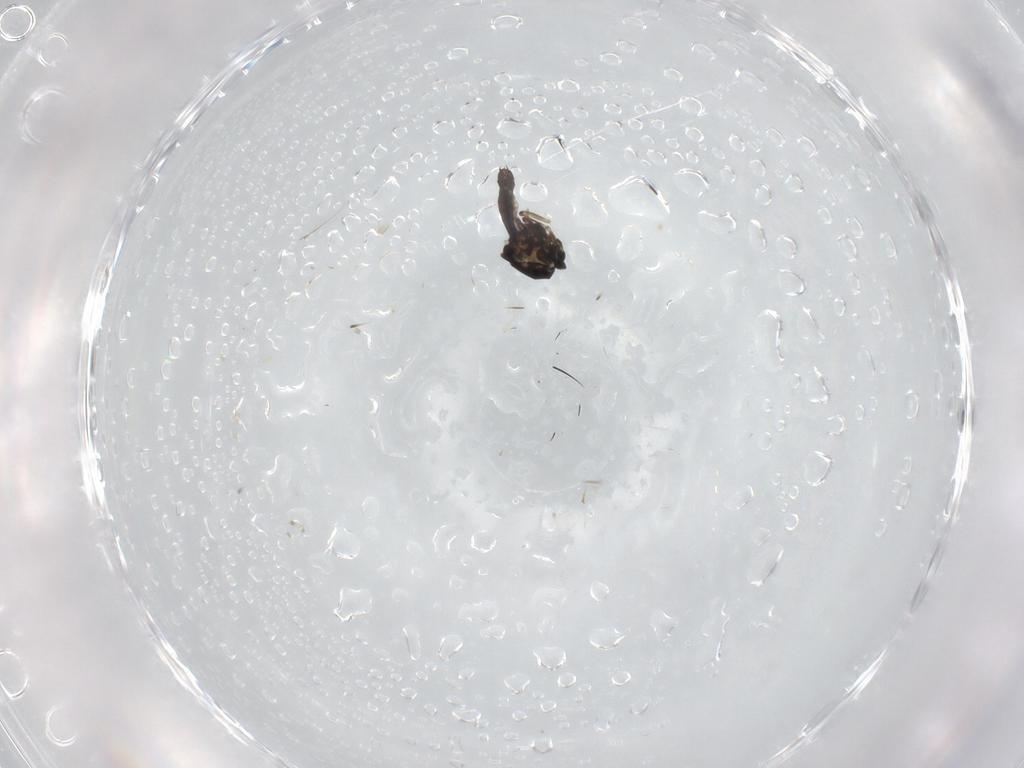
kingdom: Animalia
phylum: Arthropoda
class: Insecta
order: Diptera
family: Ceratopogonidae
